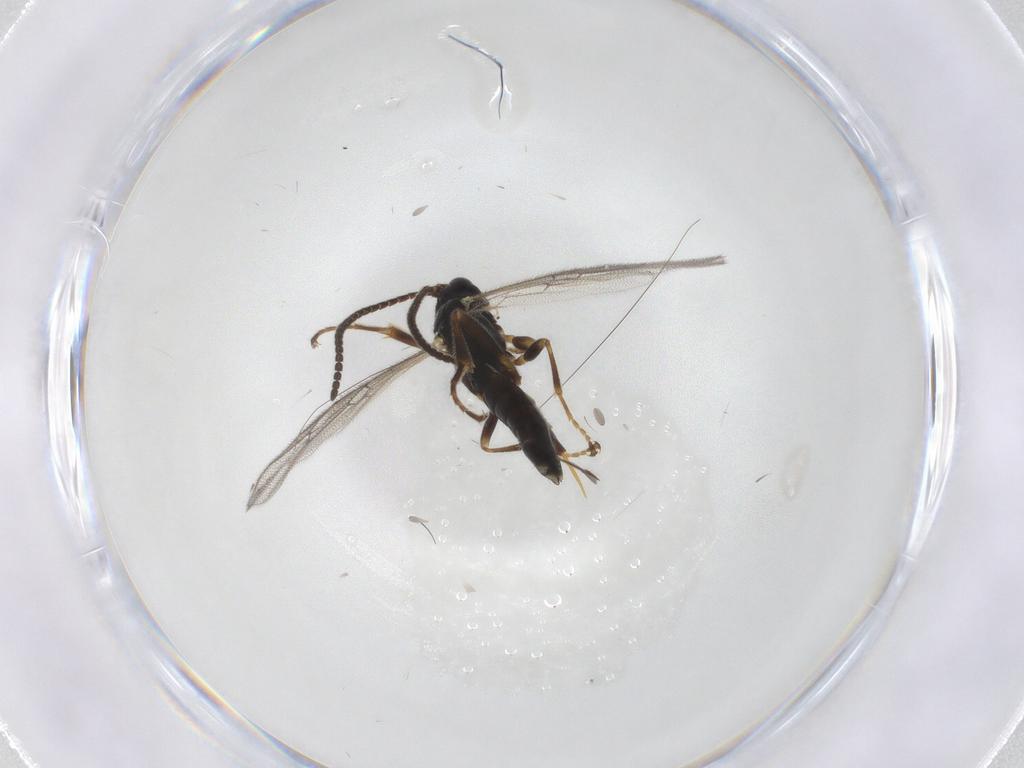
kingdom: Animalia
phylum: Arthropoda
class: Insecta
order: Hymenoptera
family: Ichneumonidae
